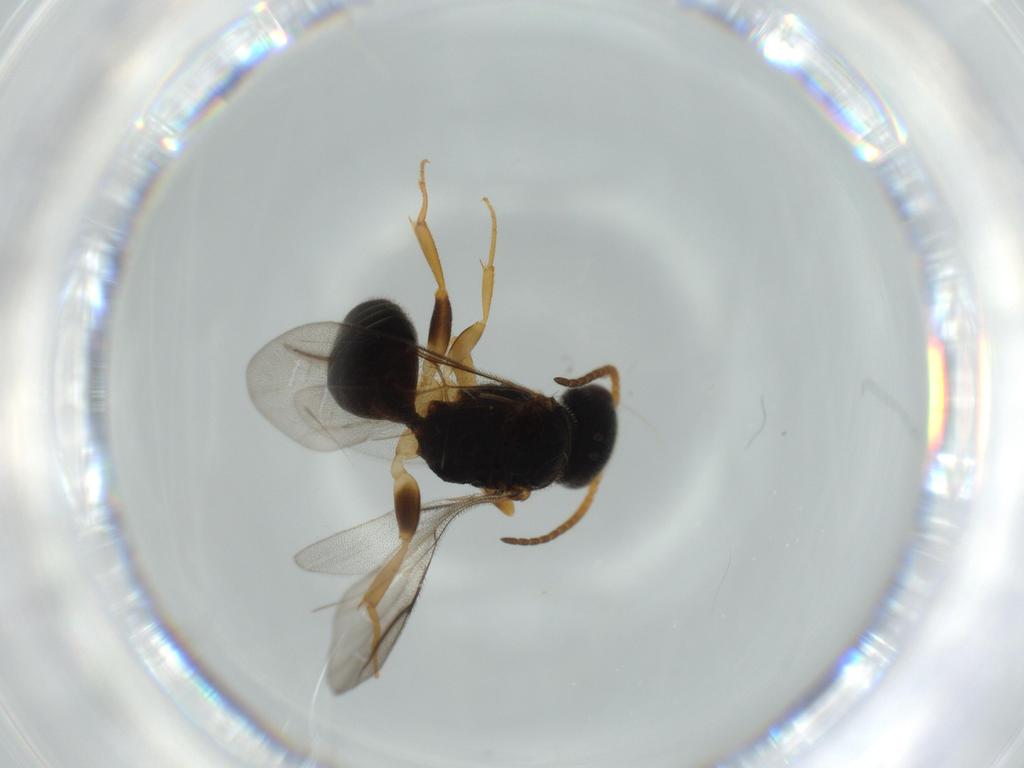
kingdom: Animalia
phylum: Arthropoda
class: Insecta
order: Hymenoptera
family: Bethylidae
